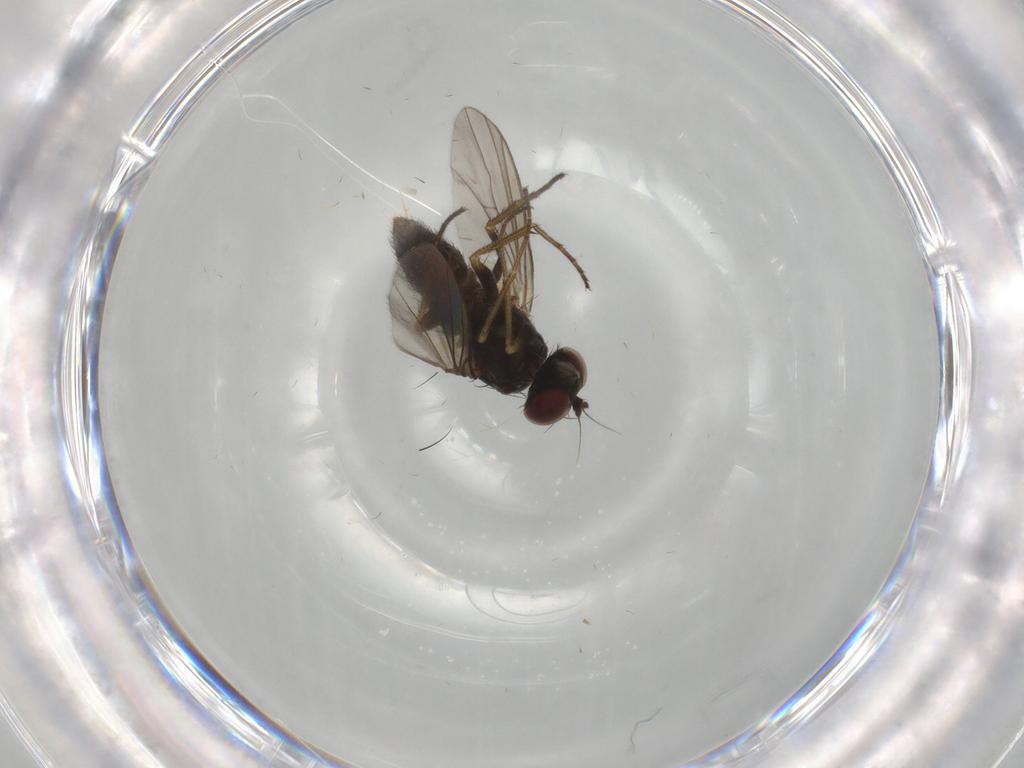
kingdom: Animalia
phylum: Arthropoda
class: Insecta
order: Diptera
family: Dolichopodidae
